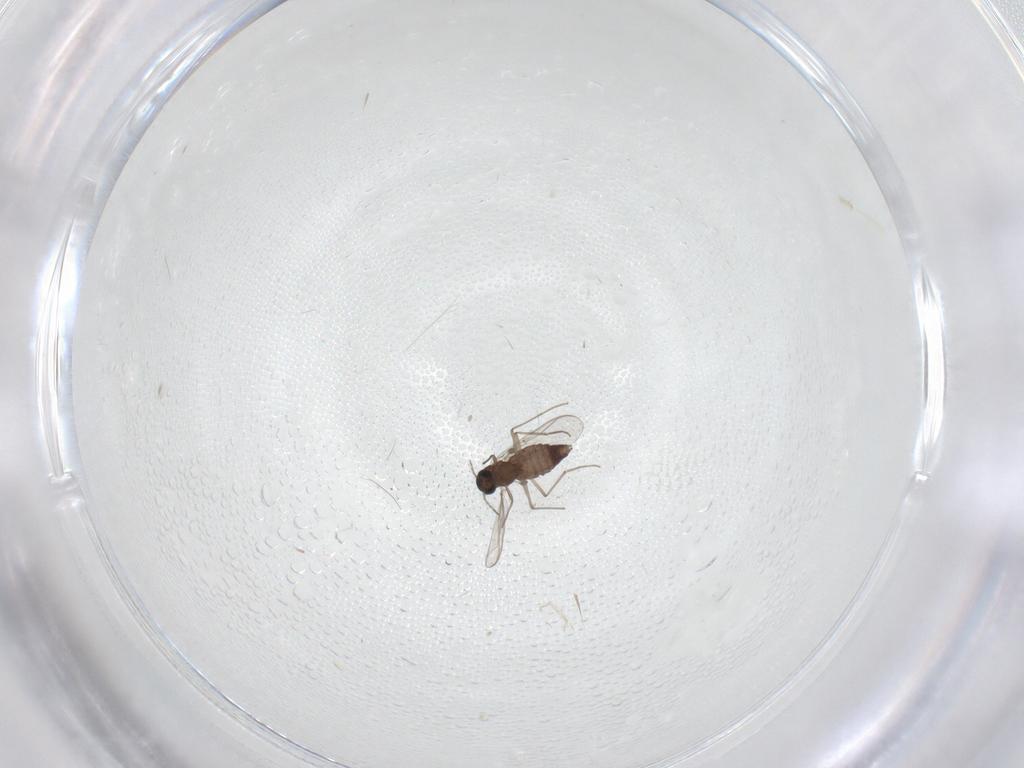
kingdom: Animalia
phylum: Arthropoda
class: Insecta
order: Diptera
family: Chironomidae
